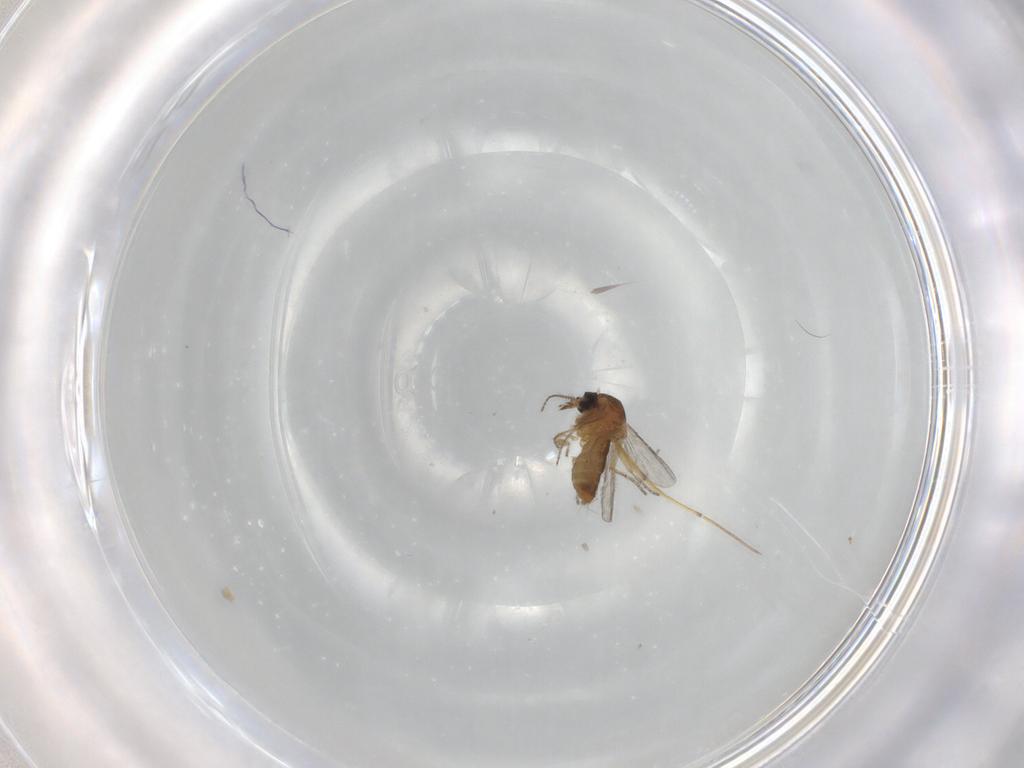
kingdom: Animalia
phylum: Arthropoda
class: Insecta
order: Diptera
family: Ceratopogonidae
